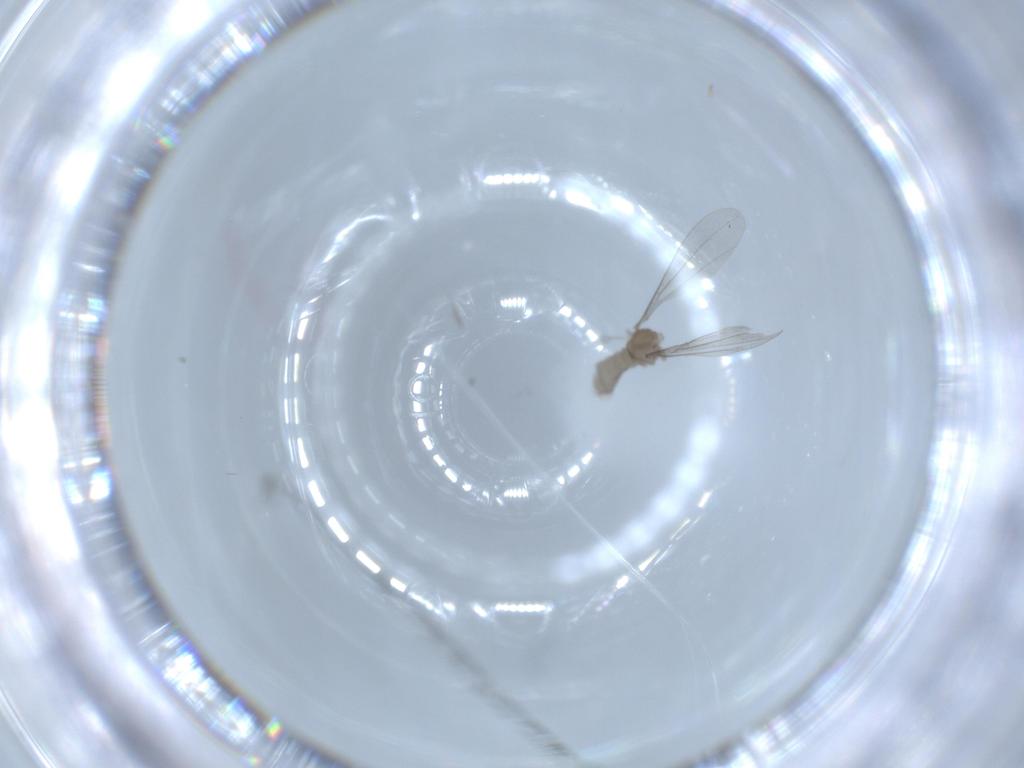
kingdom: Animalia
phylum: Arthropoda
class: Insecta
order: Diptera
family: Cecidomyiidae
